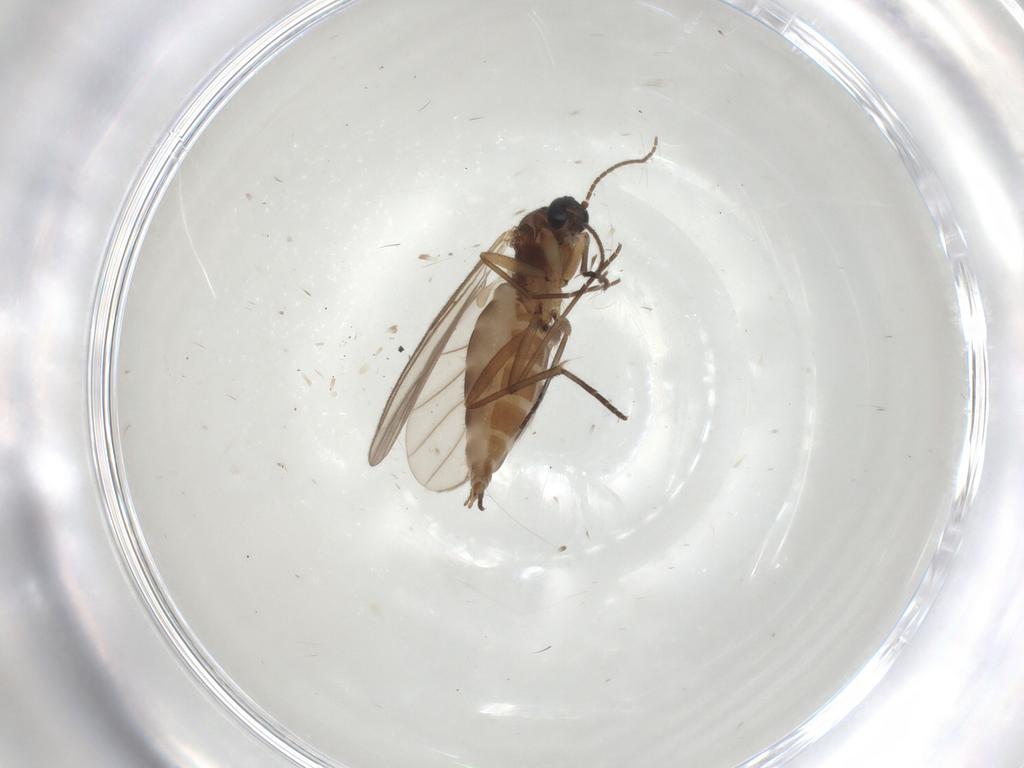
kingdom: Animalia
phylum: Arthropoda
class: Insecta
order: Diptera
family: Sciaridae
